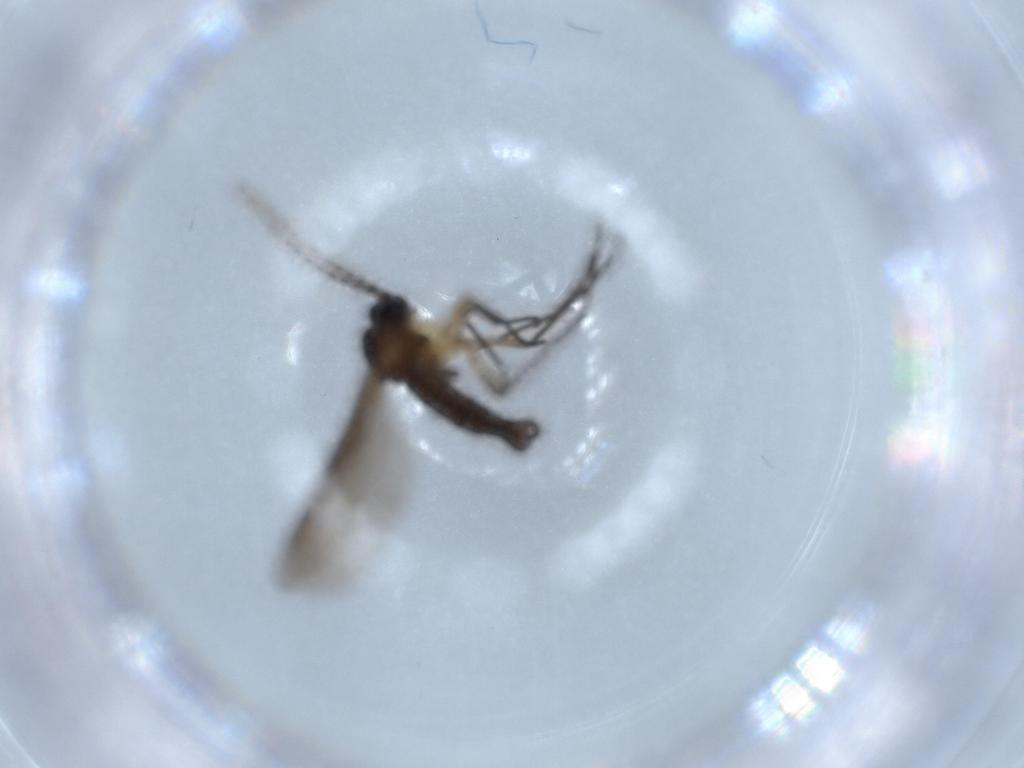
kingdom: Animalia
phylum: Arthropoda
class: Insecta
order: Diptera
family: Sciaridae
